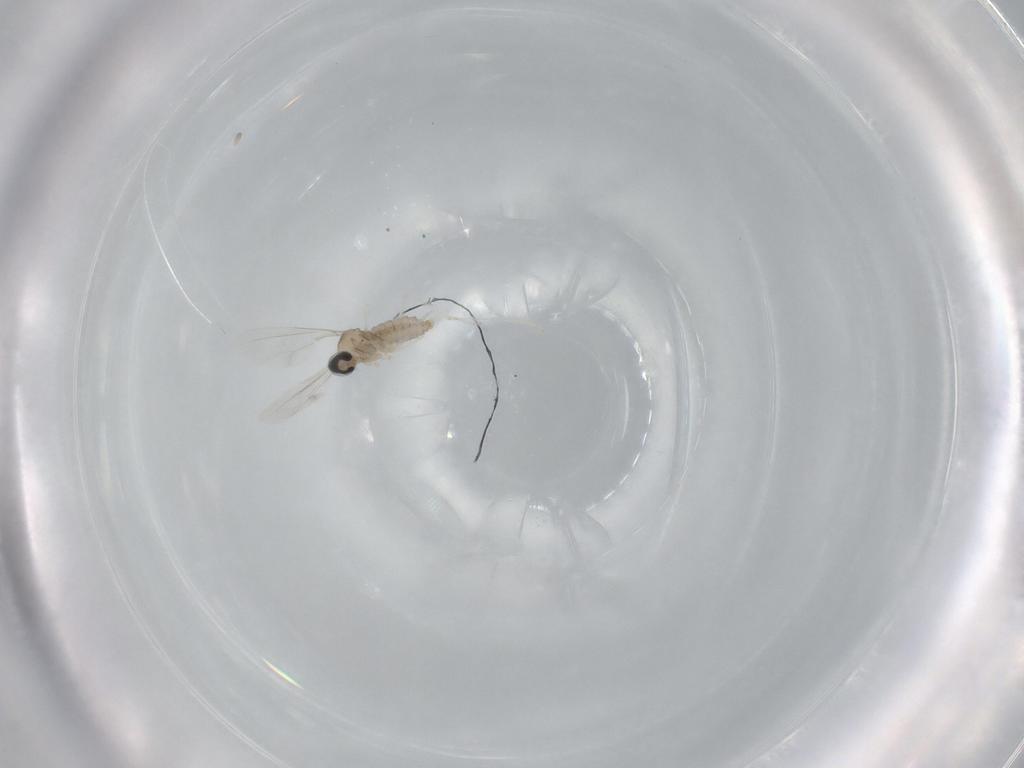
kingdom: Animalia
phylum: Arthropoda
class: Insecta
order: Diptera
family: Cecidomyiidae
